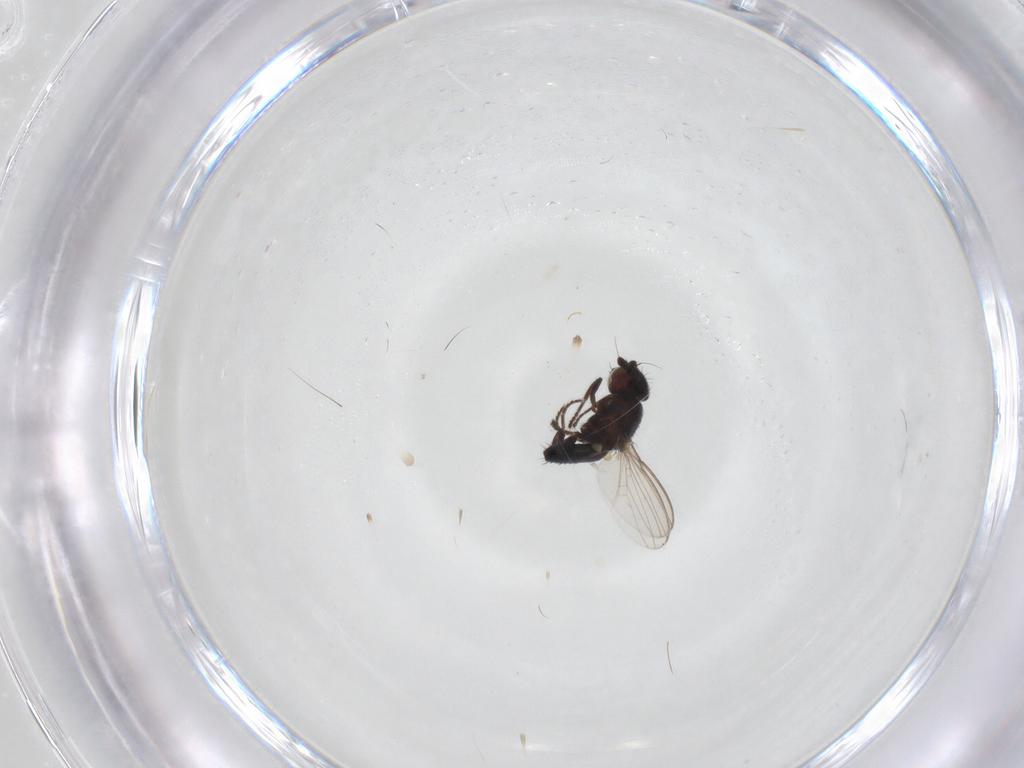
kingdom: Animalia
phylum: Arthropoda
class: Insecta
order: Diptera
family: Milichiidae
